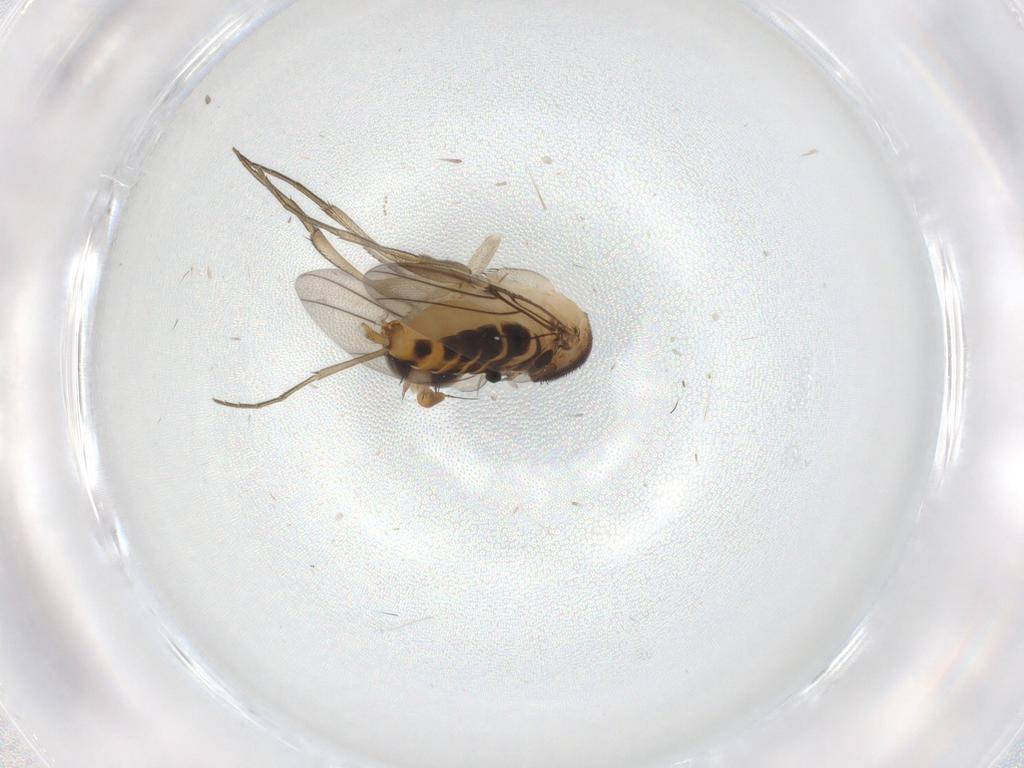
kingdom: Animalia
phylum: Arthropoda
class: Insecta
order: Diptera
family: Phoridae
